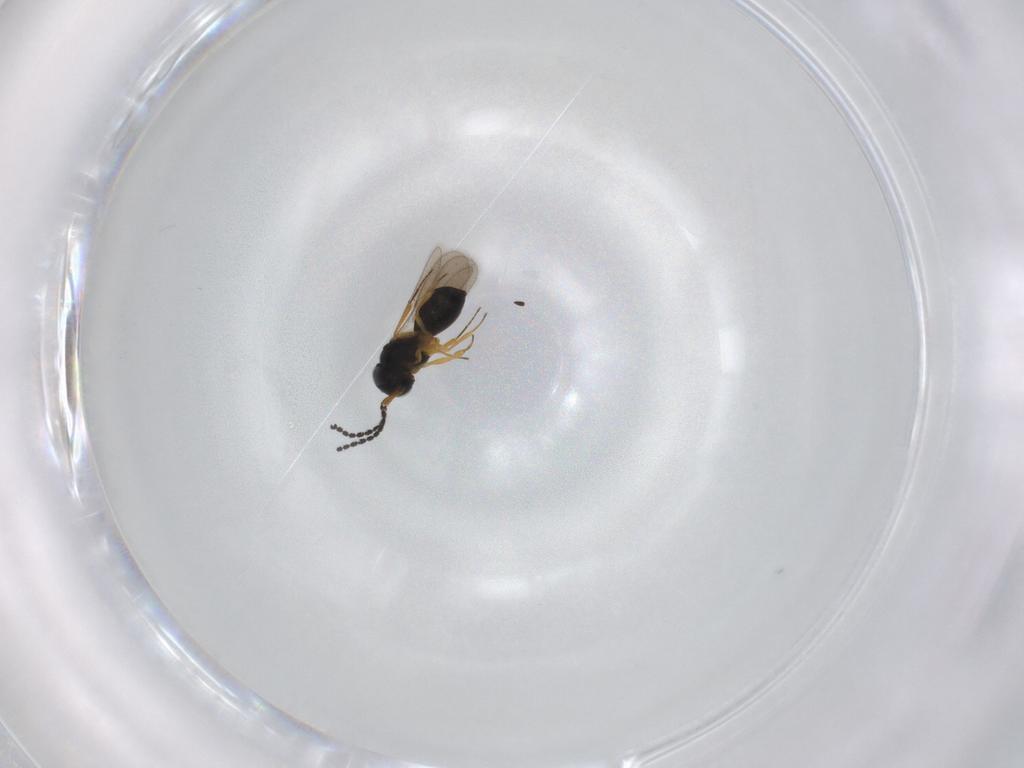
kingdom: Animalia
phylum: Arthropoda
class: Insecta
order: Hymenoptera
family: Scelionidae
